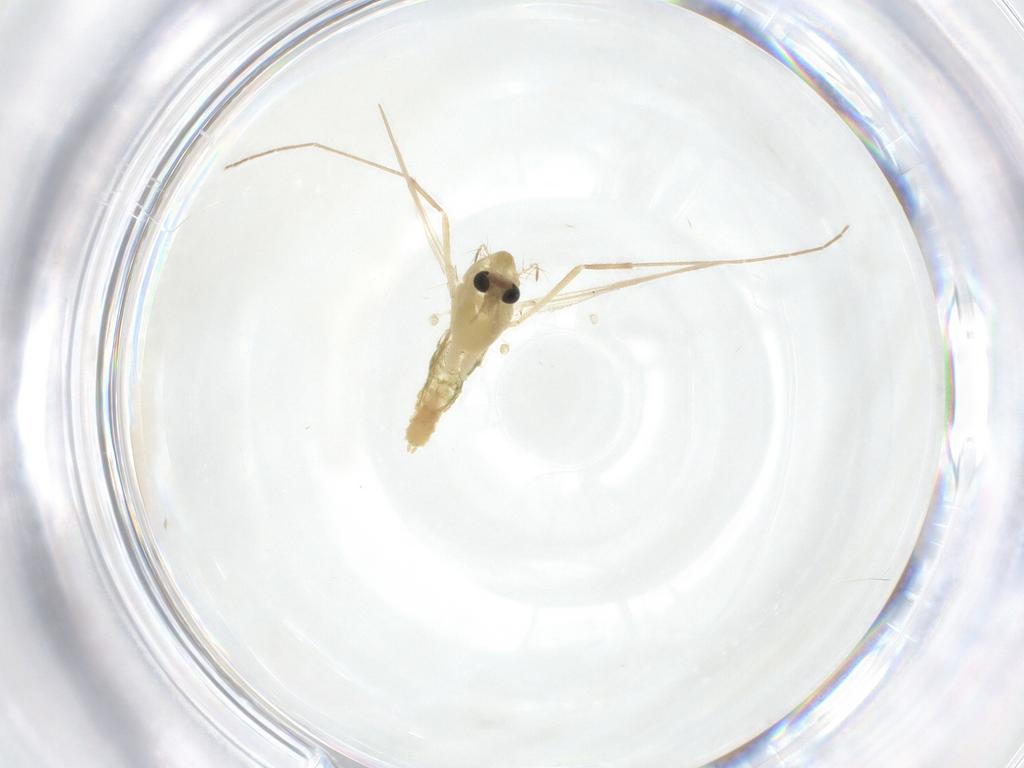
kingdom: Animalia
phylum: Arthropoda
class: Insecta
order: Diptera
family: Chironomidae
